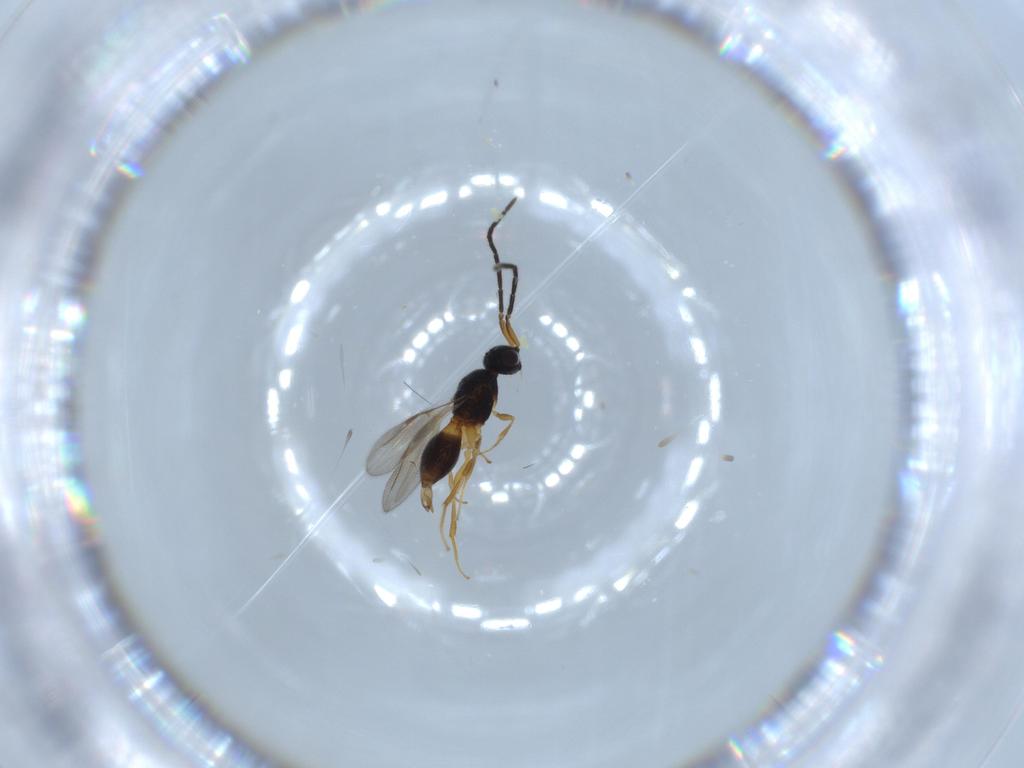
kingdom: Animalia
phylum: Arthropoda
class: Insecta
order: Hymenoptera
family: Megaspilidae
